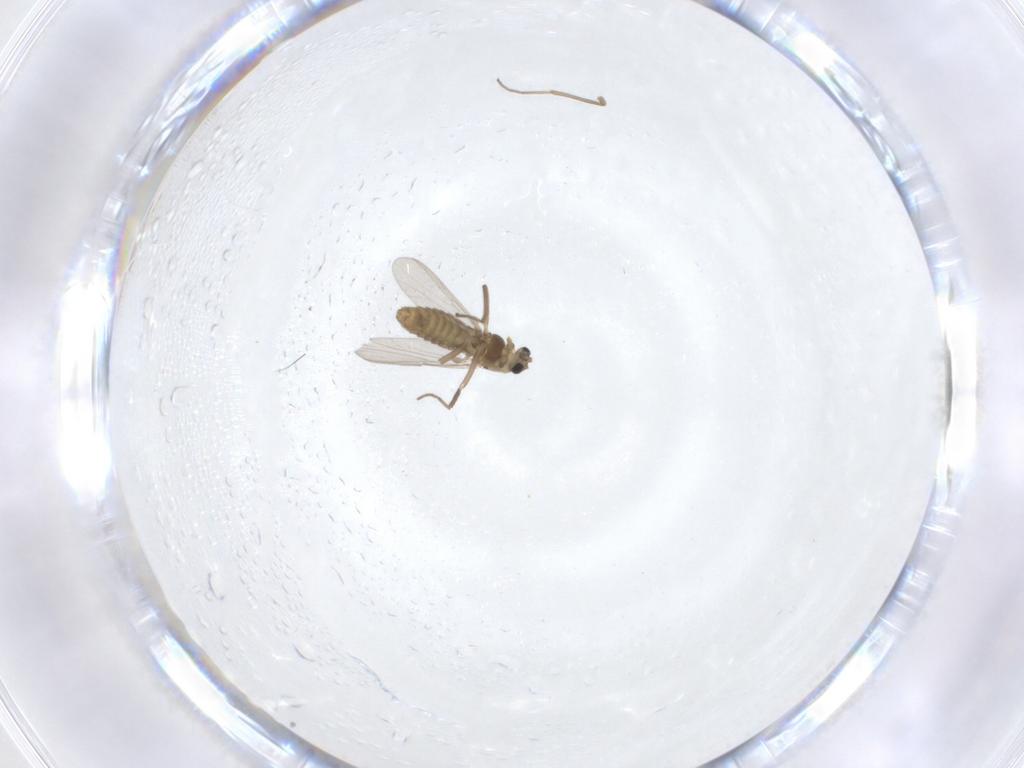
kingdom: Animalia
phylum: Arthropoda
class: Insecta
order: Diptera
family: Chironomidae
